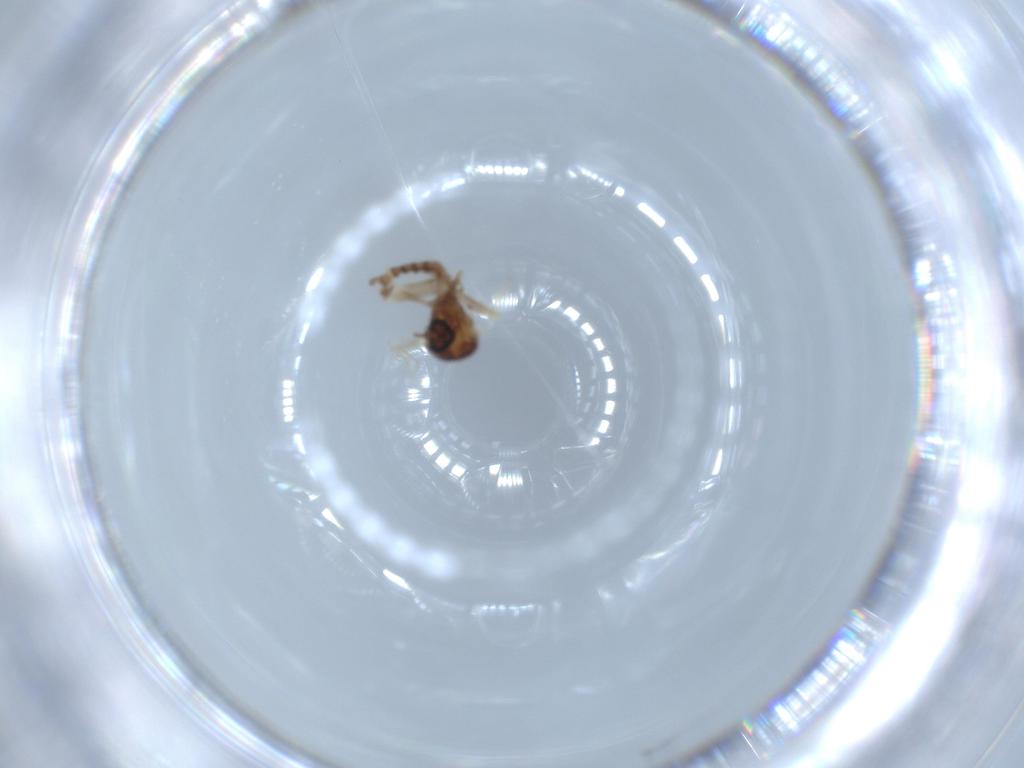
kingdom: Animalia
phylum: Arthropoda
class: Insecta
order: Diptera
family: Ceratopogonidae
